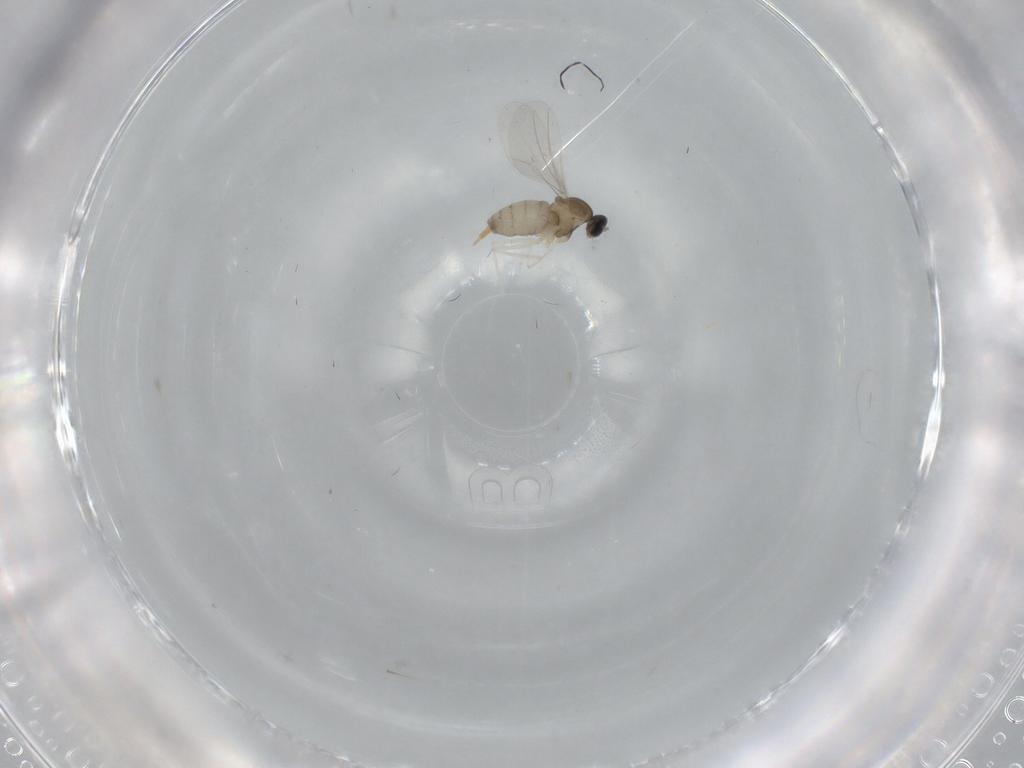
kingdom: Animalia
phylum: Arthropoda
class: Insecta
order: Diptera
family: Cecidomyiidae
